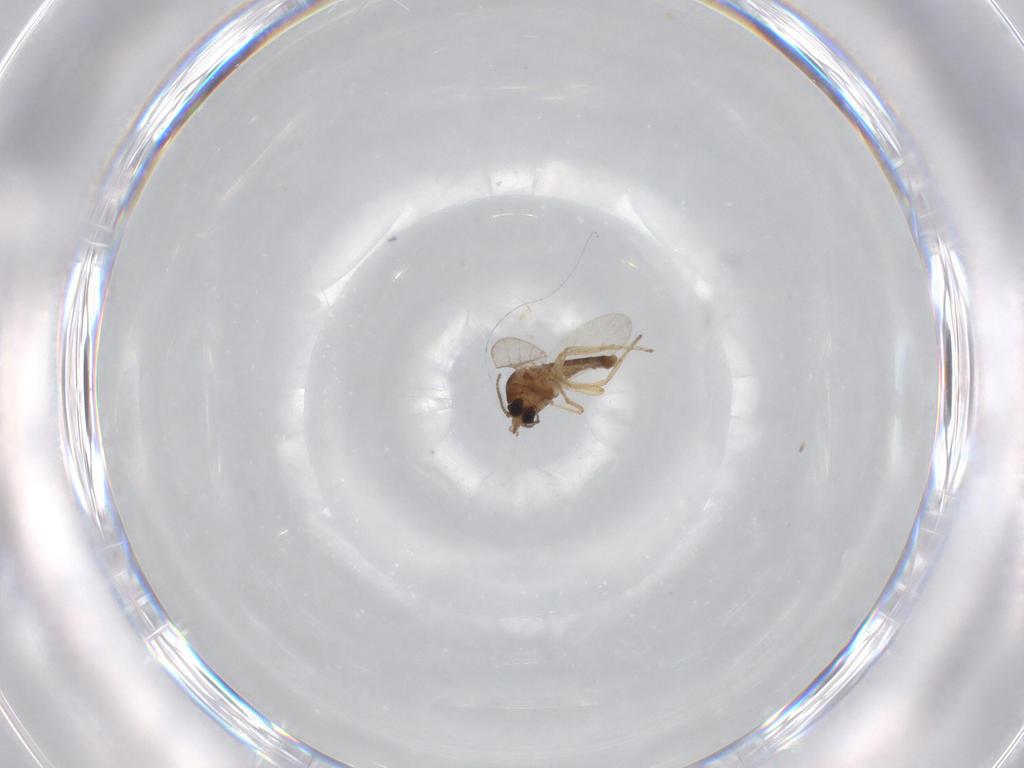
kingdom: Animalia
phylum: Arthropoda
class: Insecta
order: Diptera
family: Ceratopogonidae
